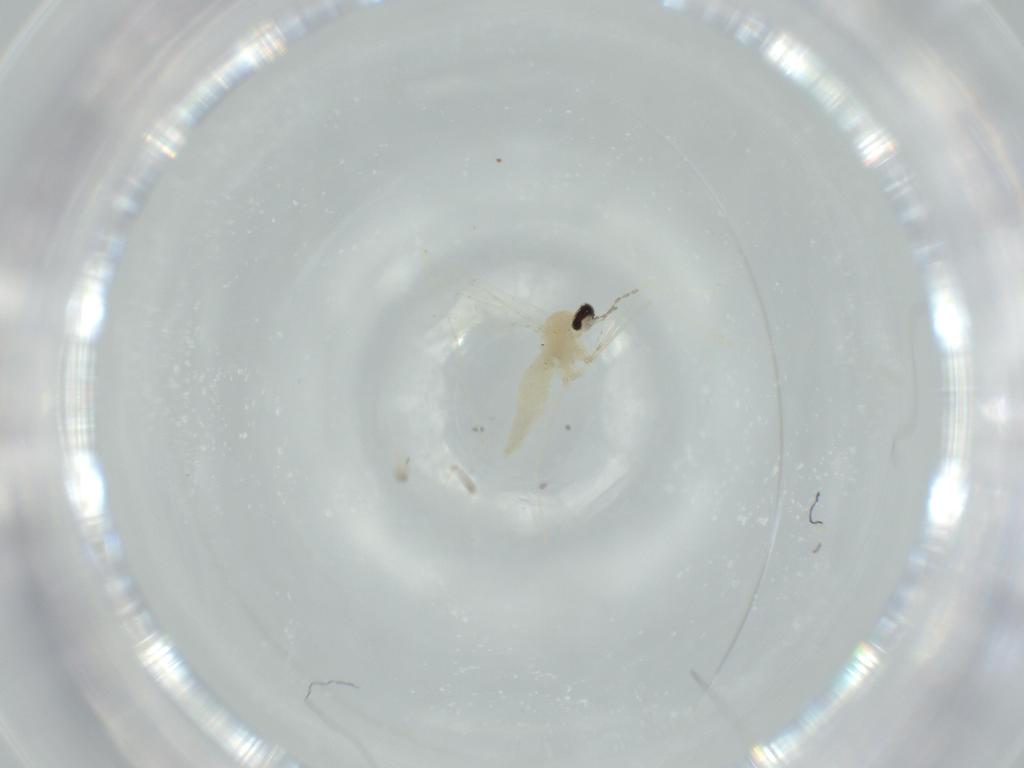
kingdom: Animalia
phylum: Arthropoda
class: Insecta
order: Diptera
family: Cecidomyiidae
